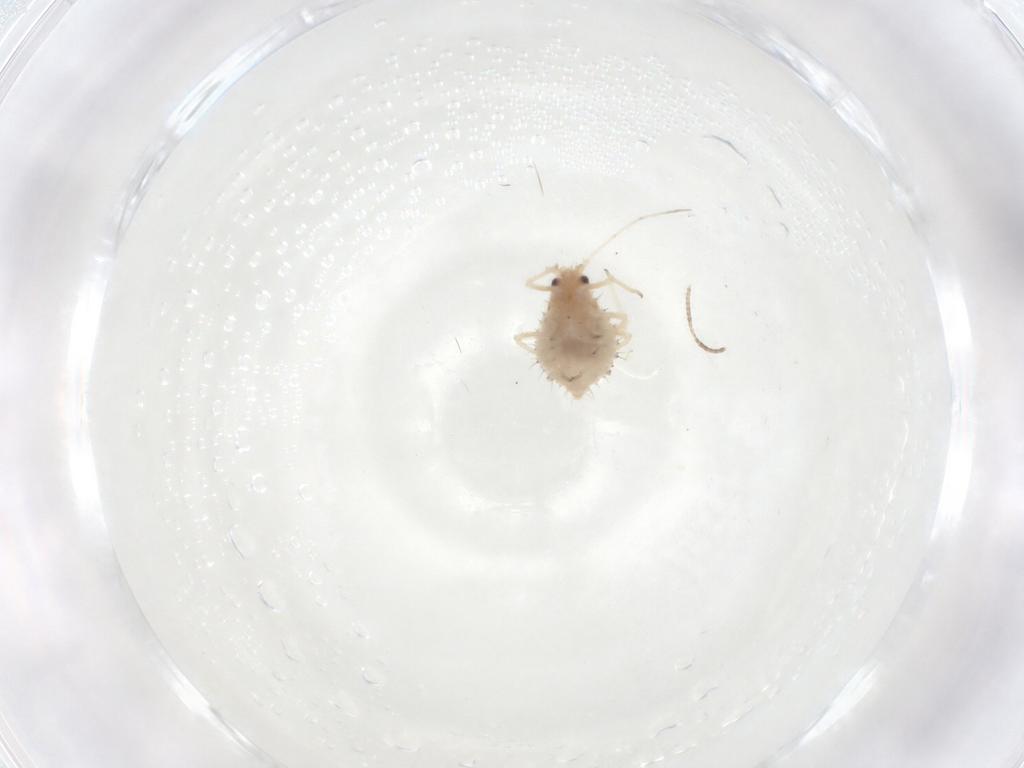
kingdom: Animalia
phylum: Arthropoda
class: Insecta
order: Hemiptera
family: Aphididae
